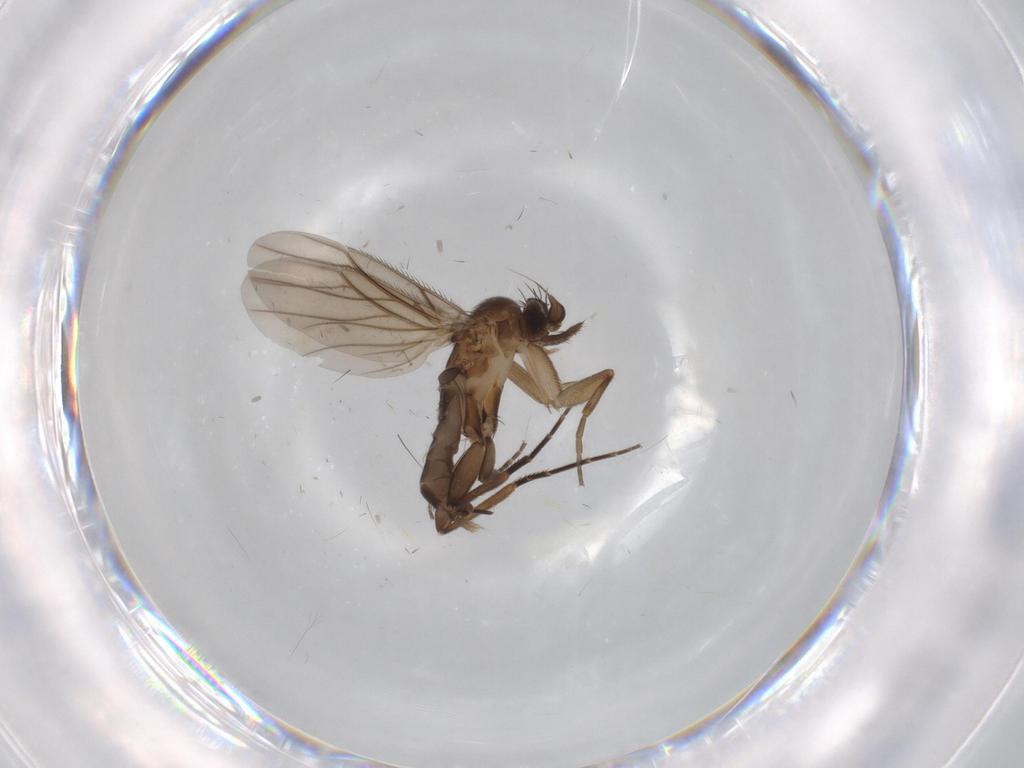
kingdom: Animalia
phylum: Arthropoda
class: Insecta
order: Diptera
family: Phoridae
